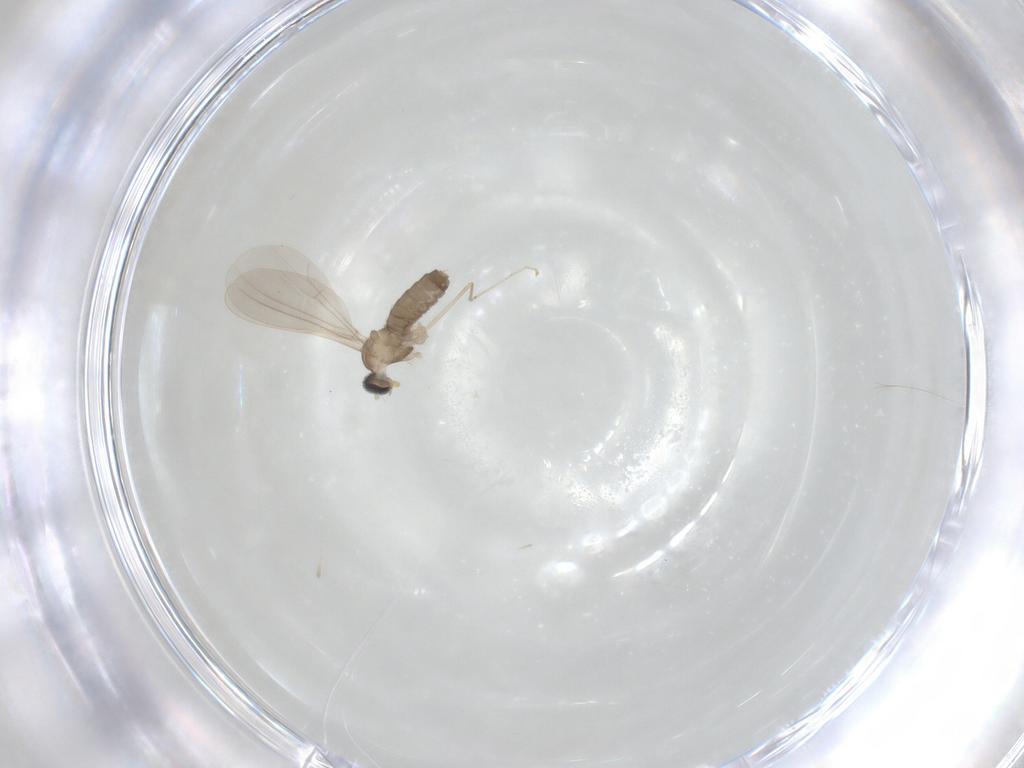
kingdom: Animalia
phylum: Arthropoda
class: Insecta
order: Diptera
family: Cecidomyiidae
